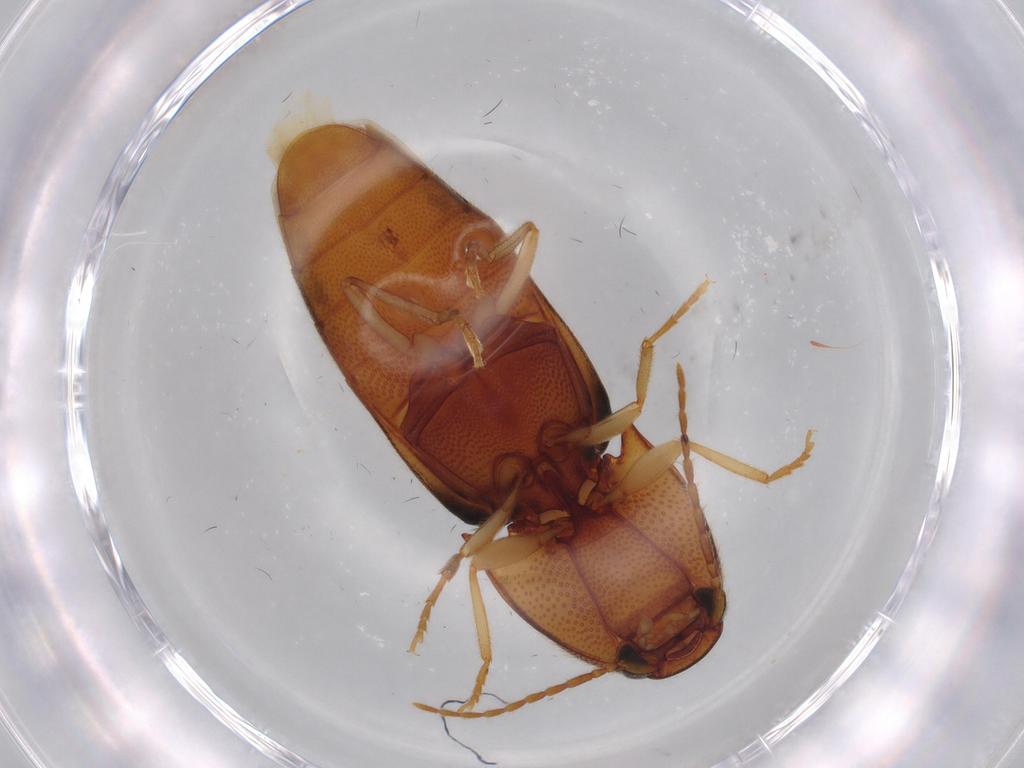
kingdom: Animalia
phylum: Arthropoda
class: Insecta
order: Coleoptera
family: Elateridae
